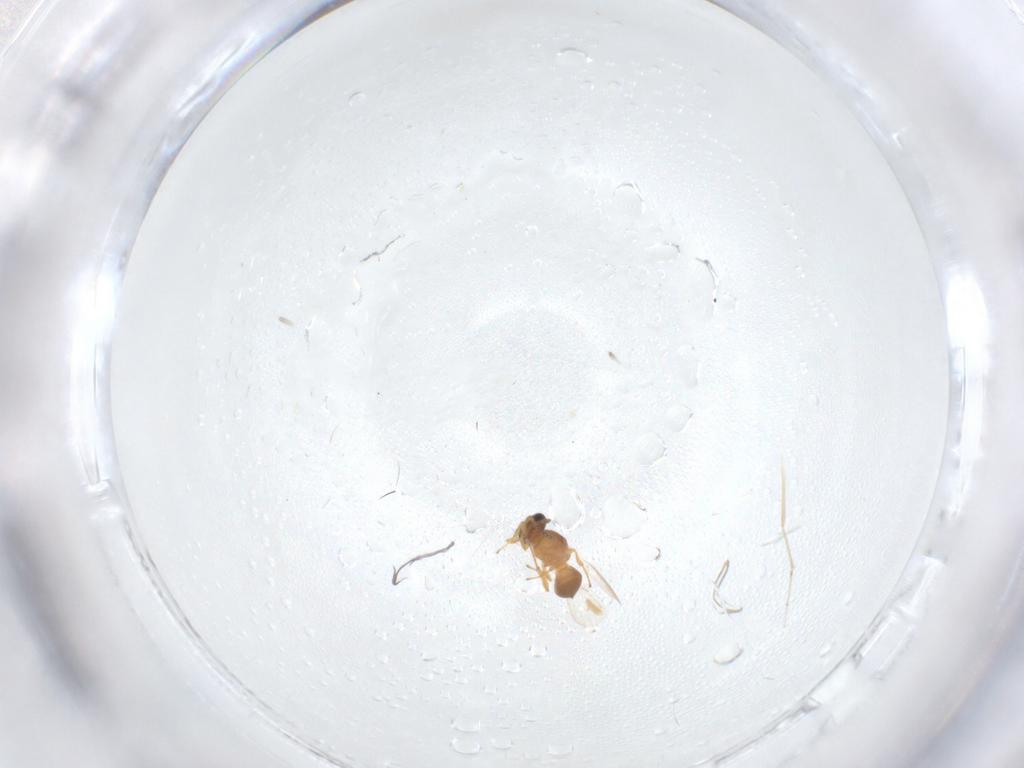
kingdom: Animalia
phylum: Arthropoda
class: Insecta
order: Hymenoptera
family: Platygastridae
